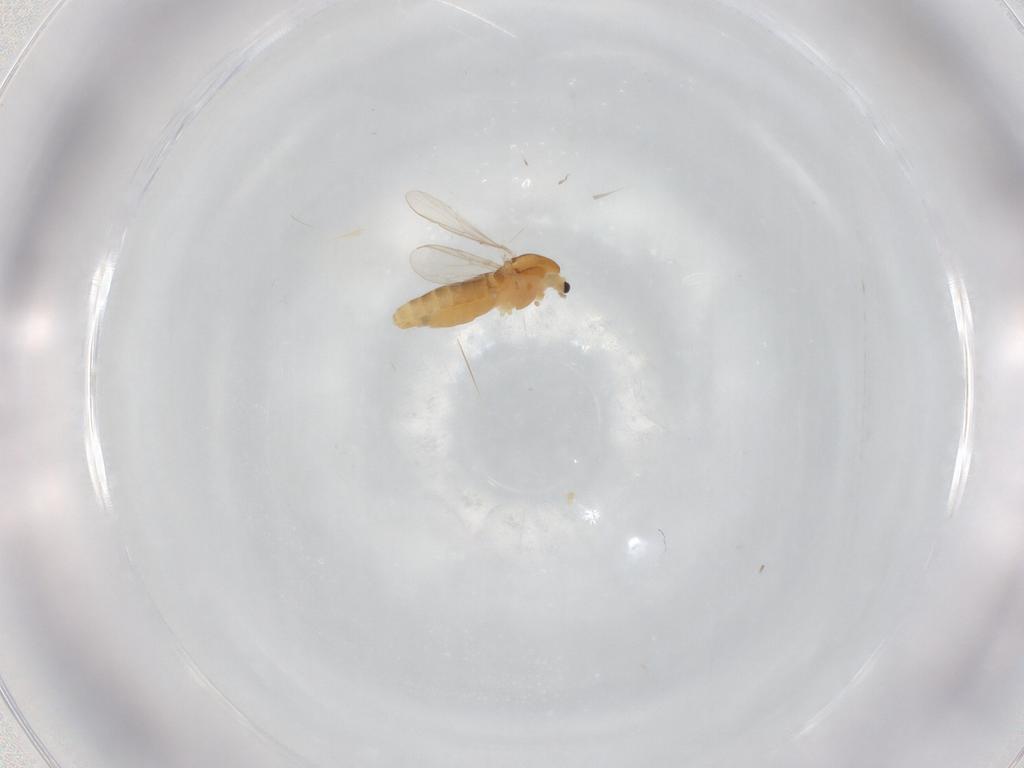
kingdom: Animalia
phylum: Arthropoda
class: Insecta
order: Diptera
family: Chironomidae
